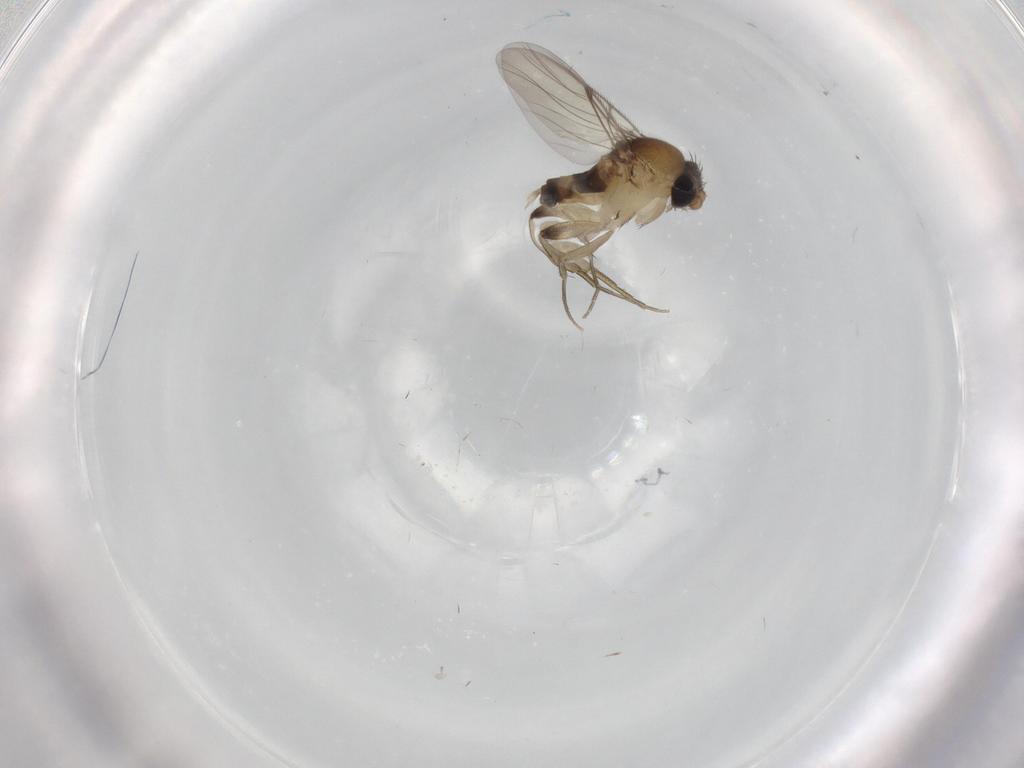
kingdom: Animalia
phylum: Arthropoda
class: Insecta
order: Diptera
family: Phoridae
